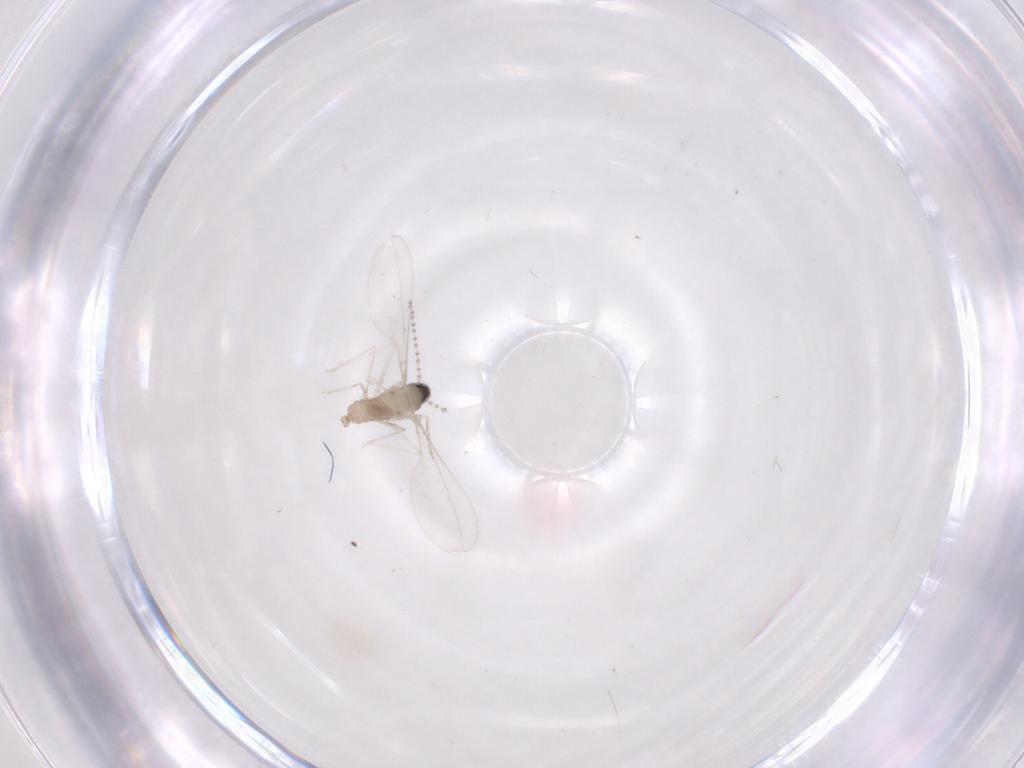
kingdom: Animalia
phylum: Arthropoda
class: Insecta
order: Diptera
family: Cecidomyiidae
